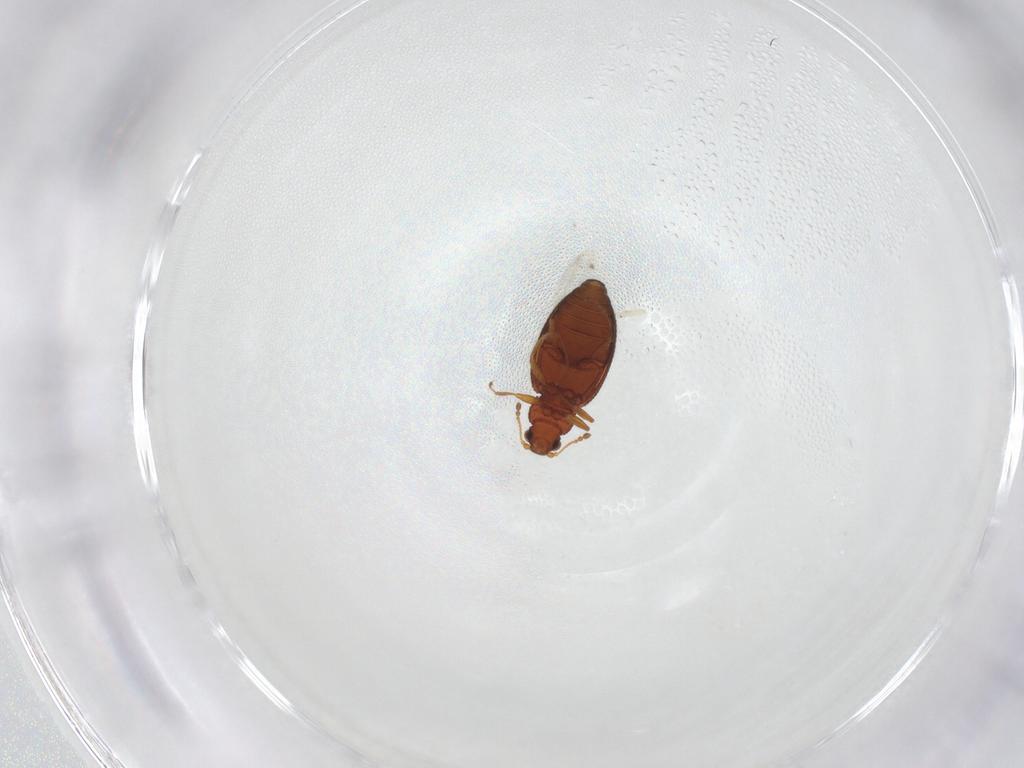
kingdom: Animalia
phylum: Arthropoda
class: Insecta
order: Coleoptera
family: Latridiidae
